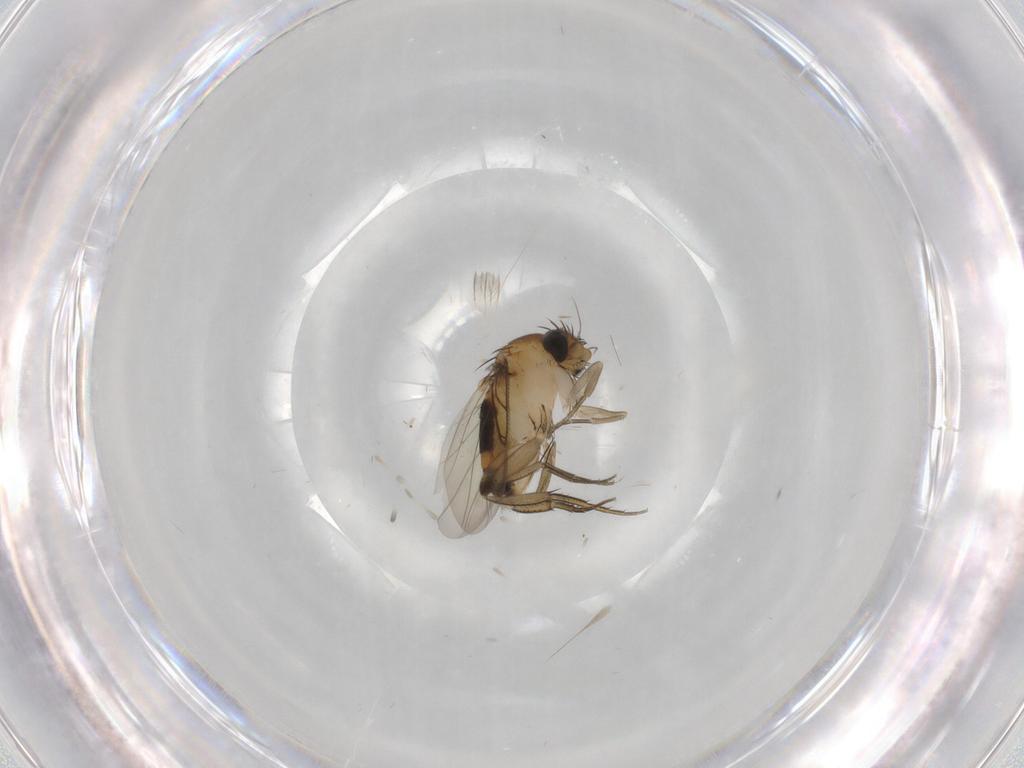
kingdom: Animalia
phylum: Arthropoda
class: Insecta
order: Diptera
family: Phoridae
